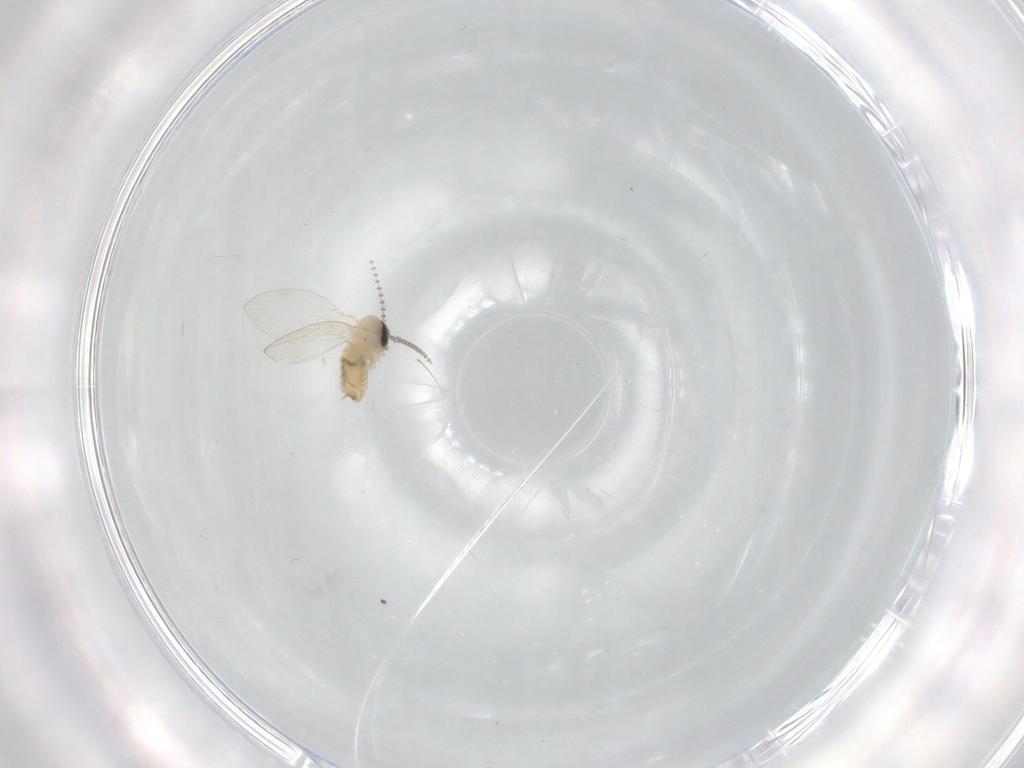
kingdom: Animalia
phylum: Arthropoda
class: Insecta
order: Diptera
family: Psychodidae
